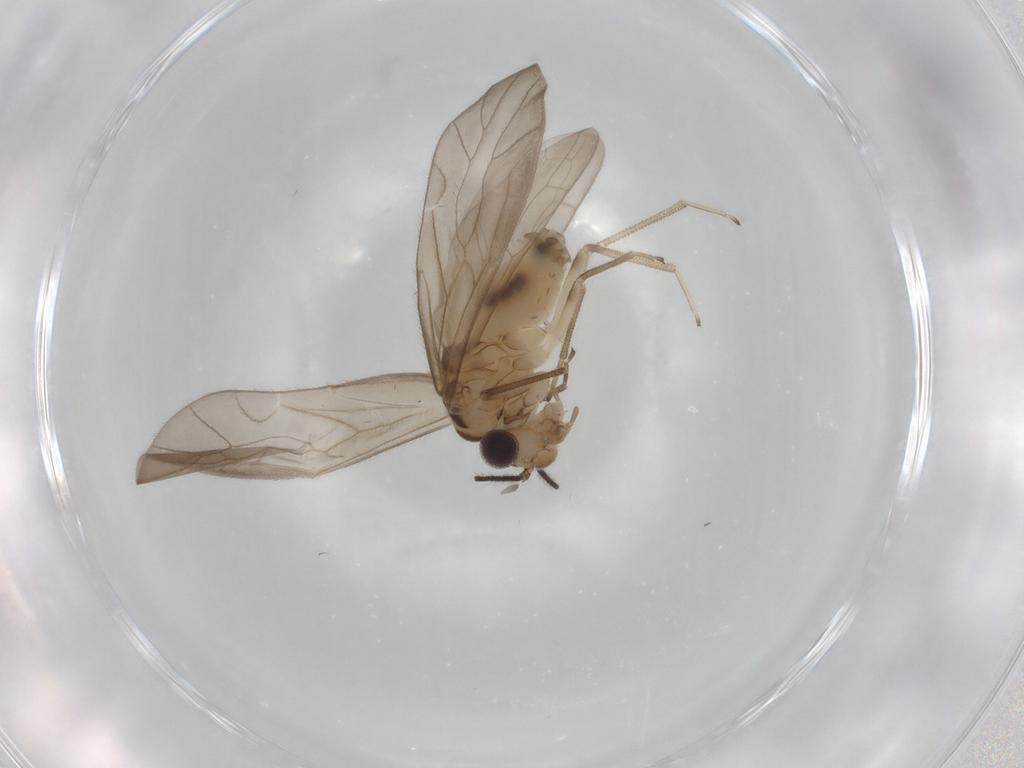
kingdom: Animalia
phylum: Arthropoda
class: Insecta
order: Psocodea
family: Caeciliusidae
